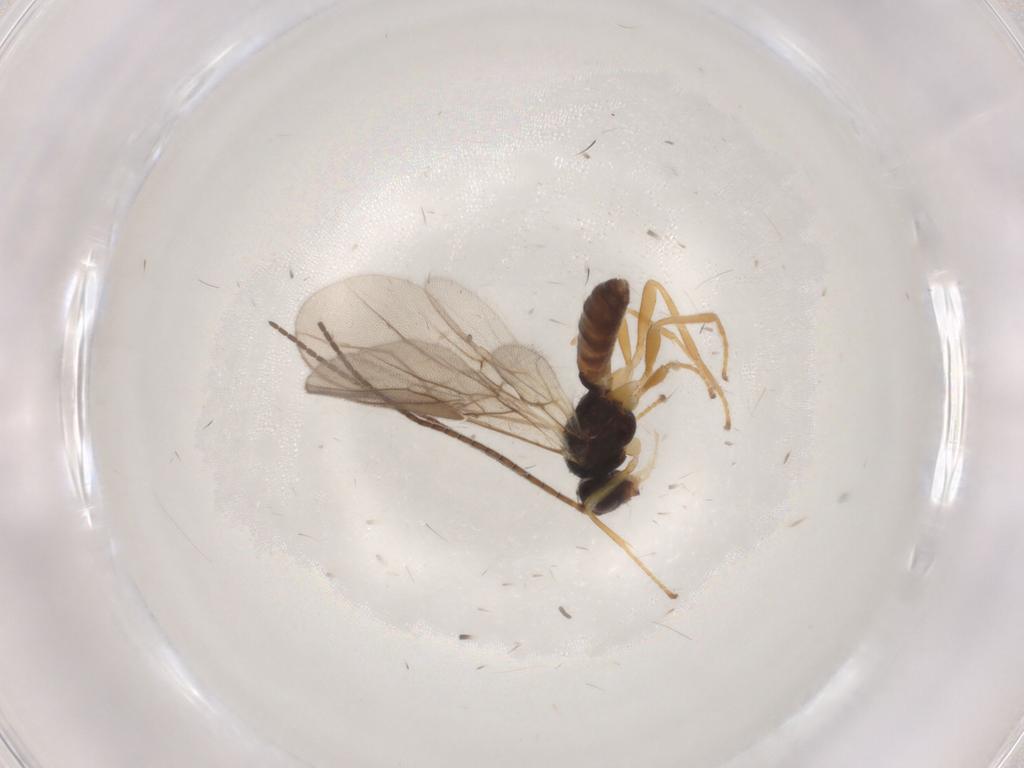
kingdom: Animalia
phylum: Arthropoda
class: Insecta
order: Hymenoptera
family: Braconidae
